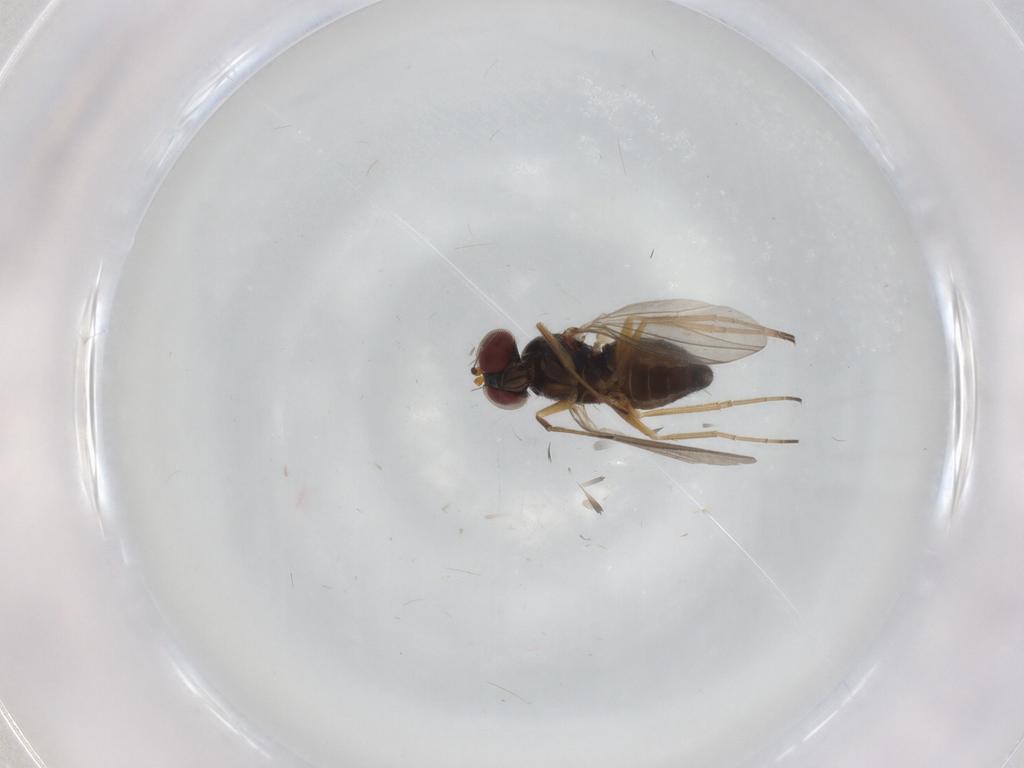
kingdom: Animalia
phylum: Arthropoda
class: Insecta
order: Diptera
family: Dolichopodidae
